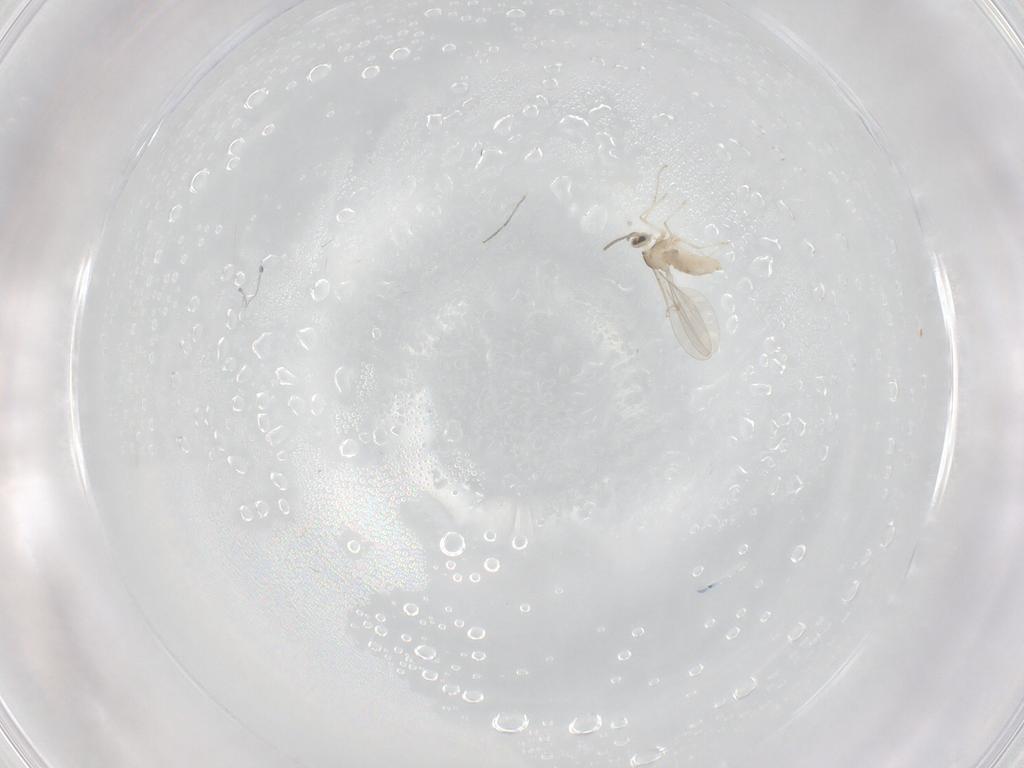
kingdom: Animalia
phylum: Arthropoda
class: Insecta
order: Diptera
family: Cecidomyiidae
